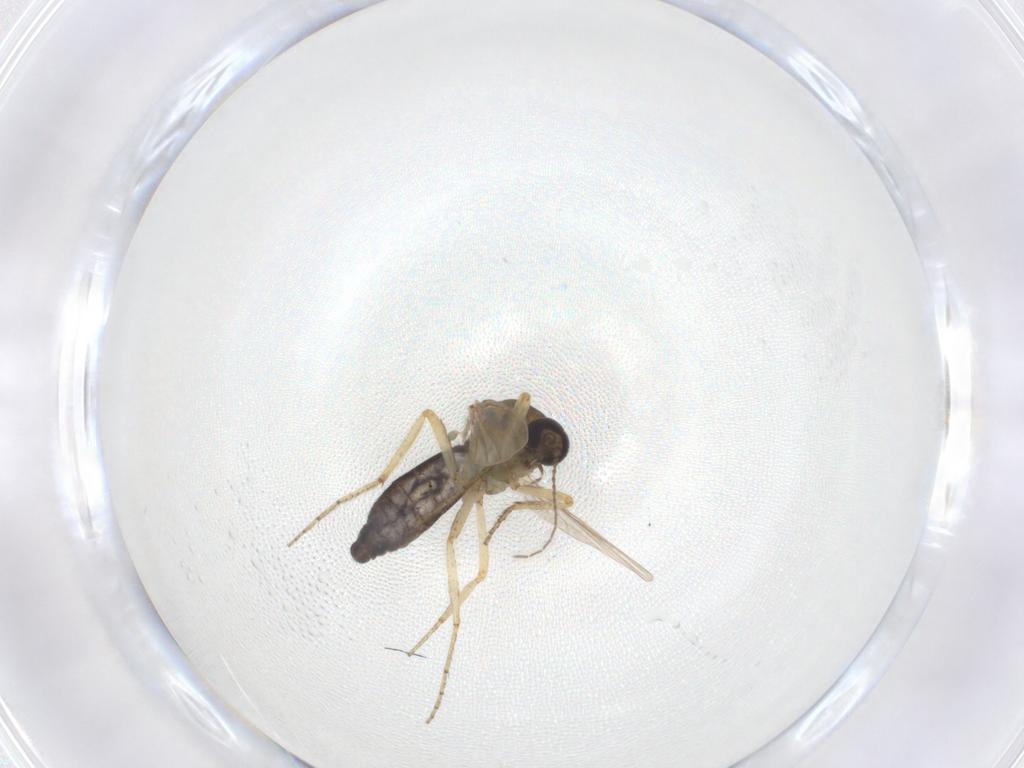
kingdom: Animalia
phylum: Arthropoda
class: Insecta
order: Diptera
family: Ceratopogonidae
